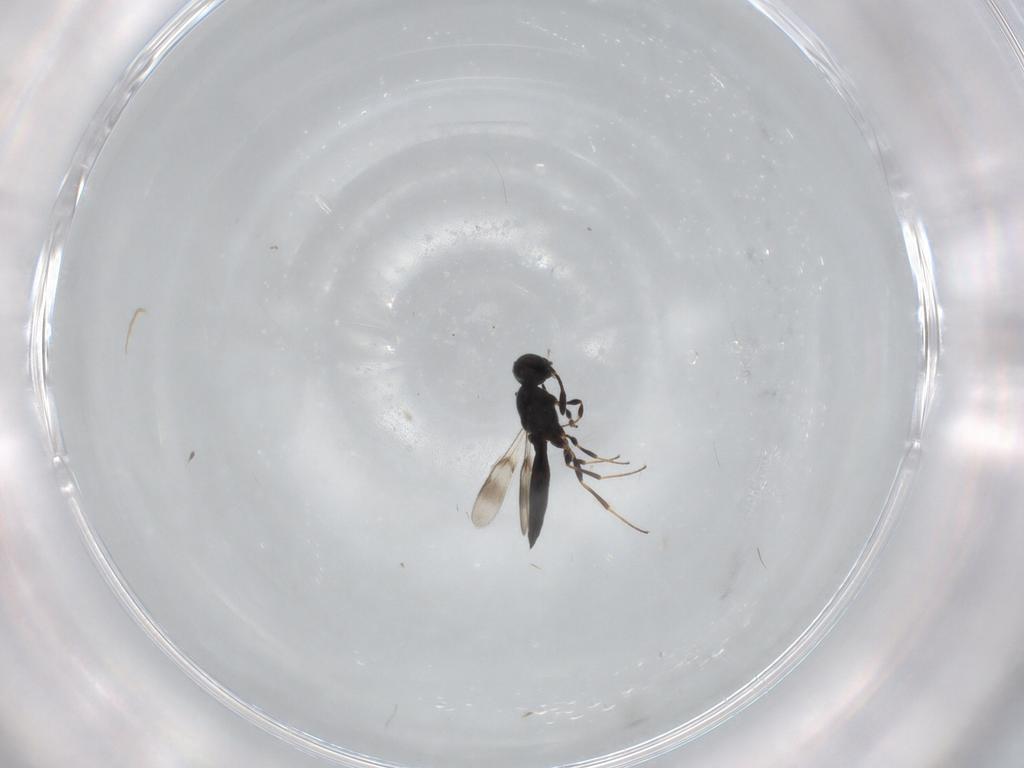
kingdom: Animalia
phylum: Arthropoda
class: Insecta
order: Hymenoptera
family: Scelionidae
